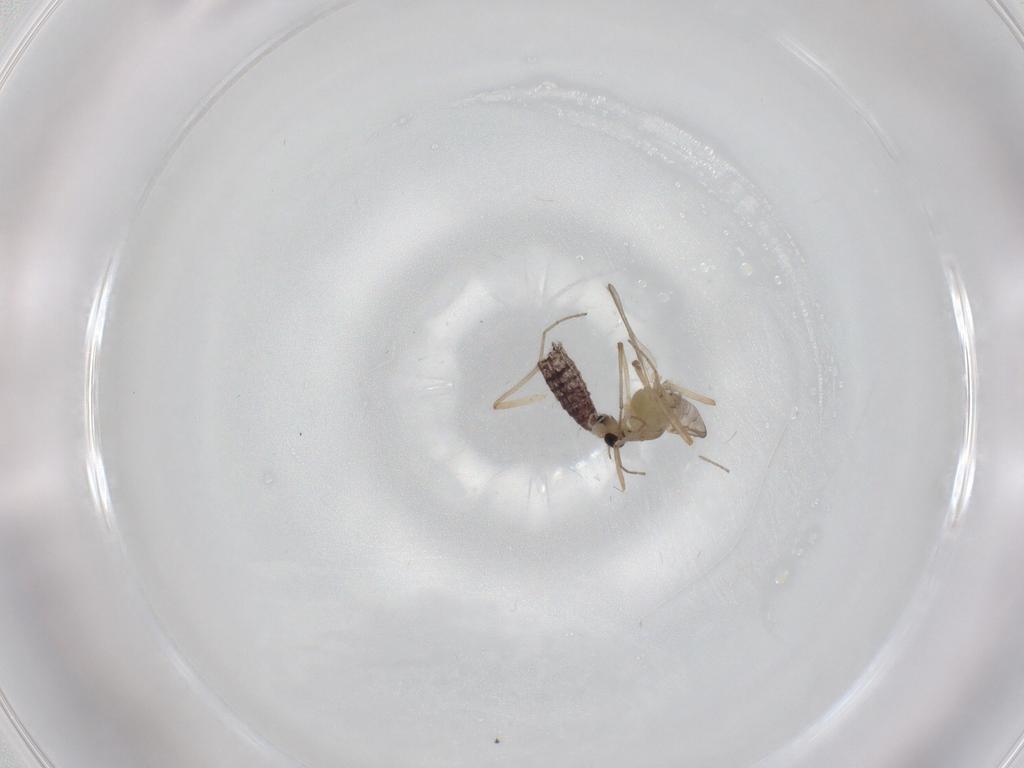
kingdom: Animalia
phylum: Arthropoda
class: Insecta
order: Diptera
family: Chironomidae
